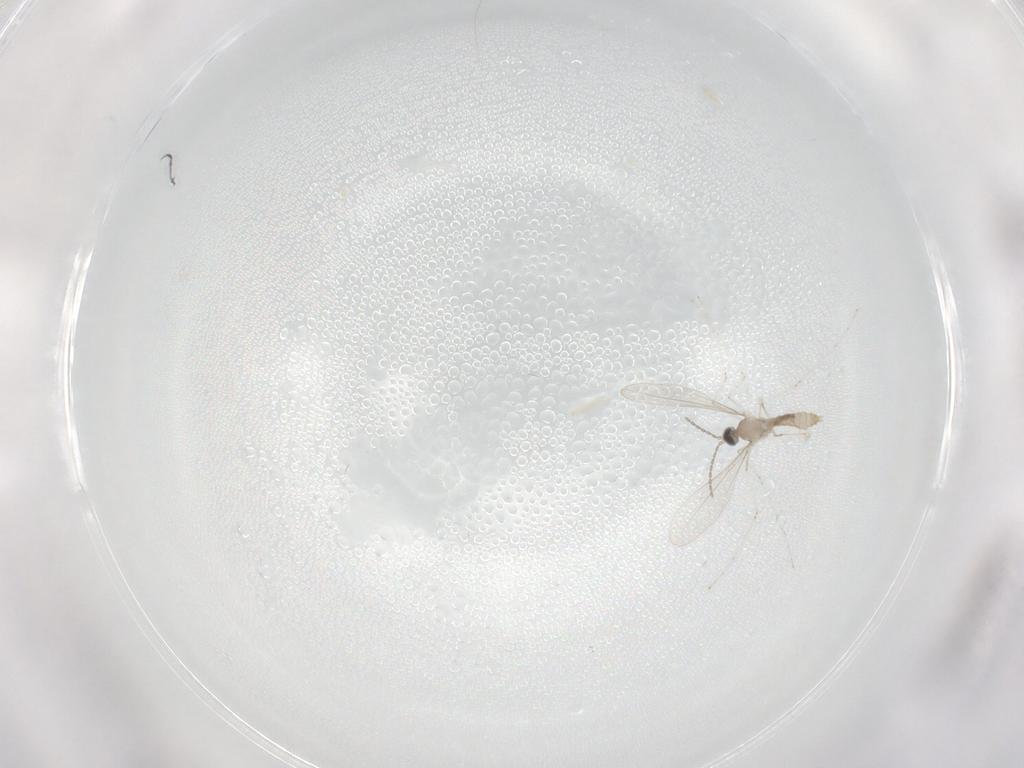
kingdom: Animalia
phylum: Arthropoda
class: Insecta
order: Diptera
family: Cecidomyiidae
